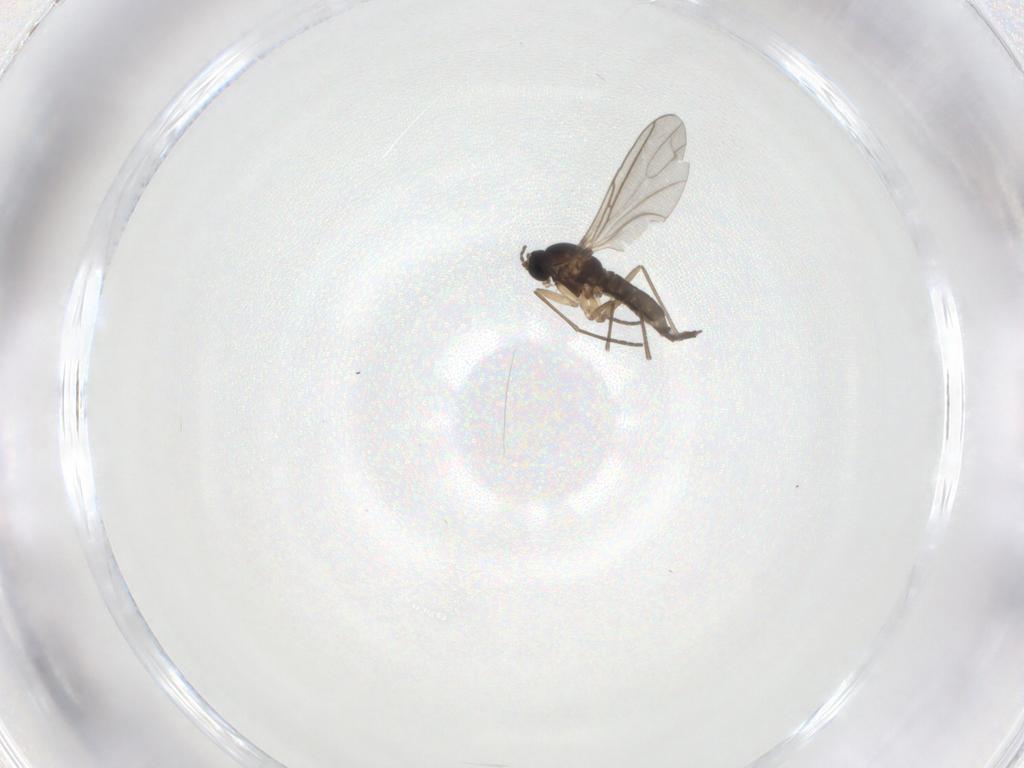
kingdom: Animalia
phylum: Arthropoda
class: Insecta
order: Diptera
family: Sciaridae
